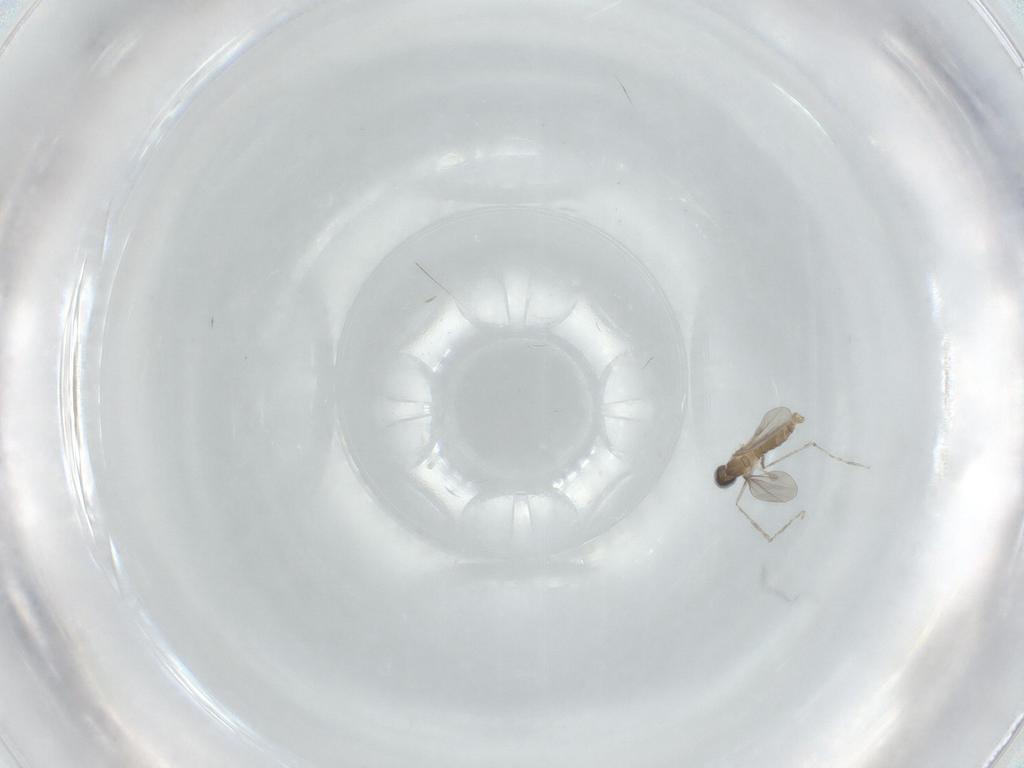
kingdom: Animalia
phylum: Arthropoda
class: Insecta
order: Diptera
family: Cecidomyiidae
